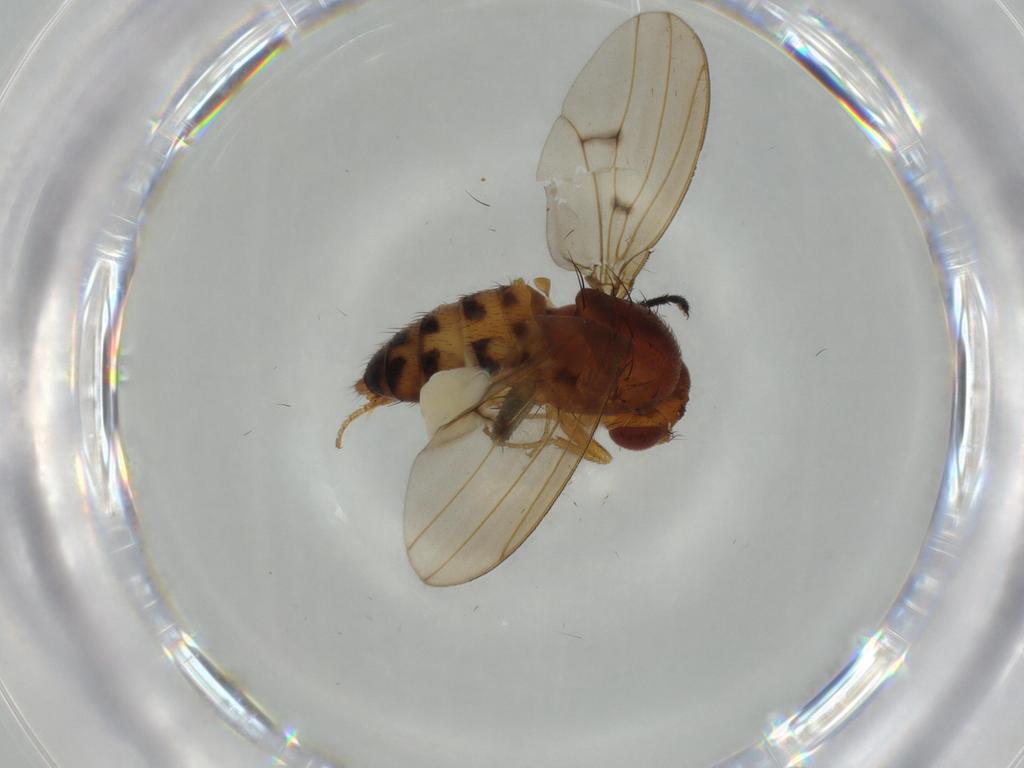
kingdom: Animalia
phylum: Arthropoda
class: Insecta
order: Diptera
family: Drosophilidae
